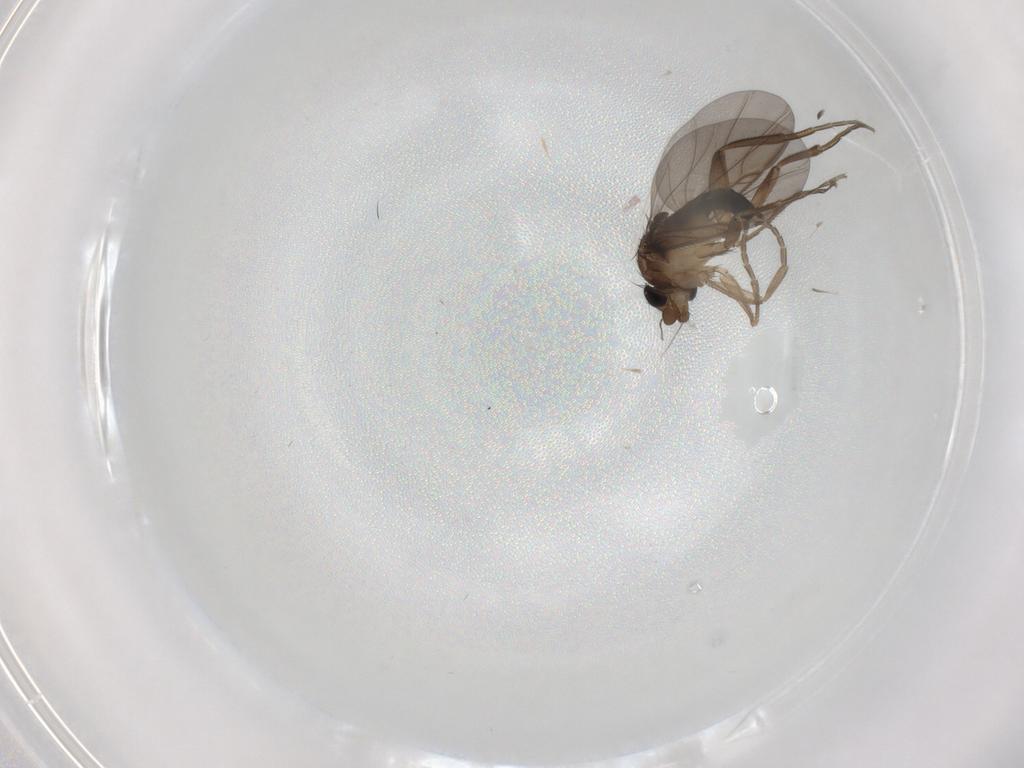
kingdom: Animalia
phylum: Arthropoda
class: Insecta
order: Diptera
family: Phoridae
